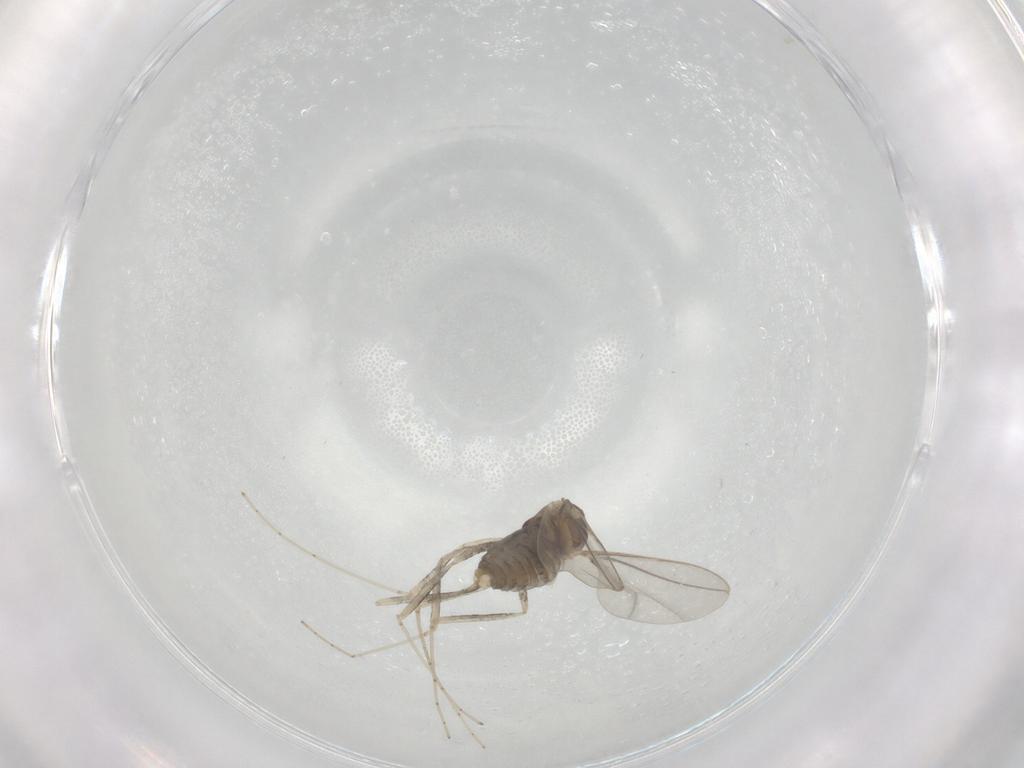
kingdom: Animalia
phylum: Arthropoda
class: Insecta
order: Diptera
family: Cecidomyiidae
